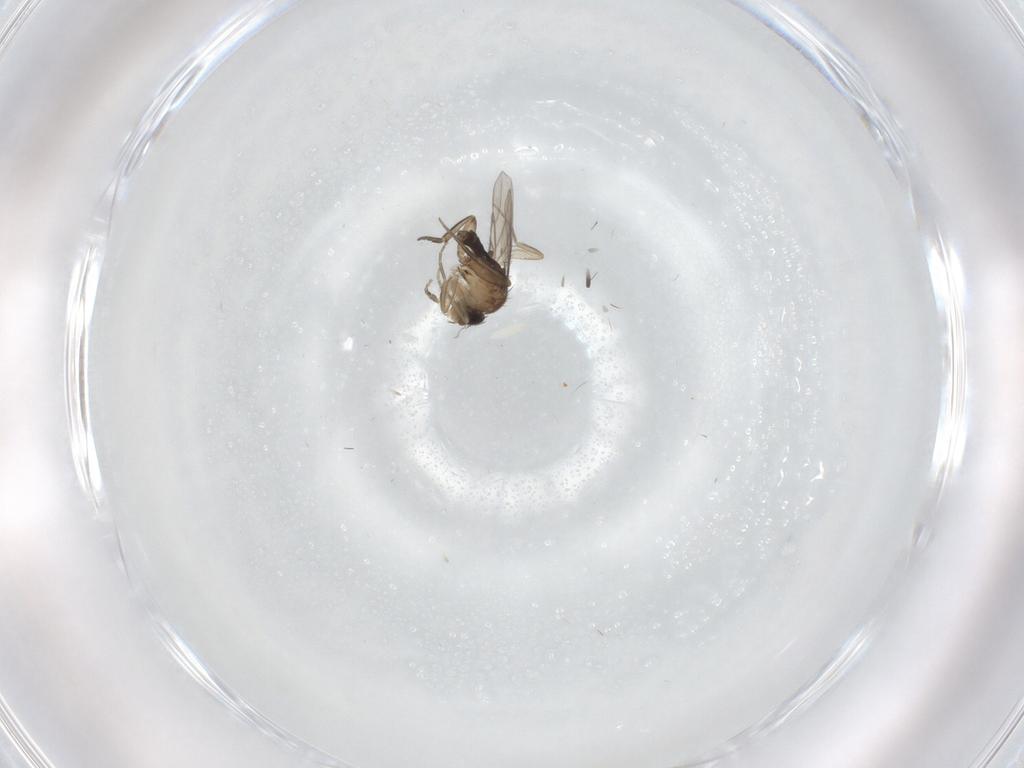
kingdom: Animalia
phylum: Arthropoda
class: Insecta
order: Diptera
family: Phoridae
